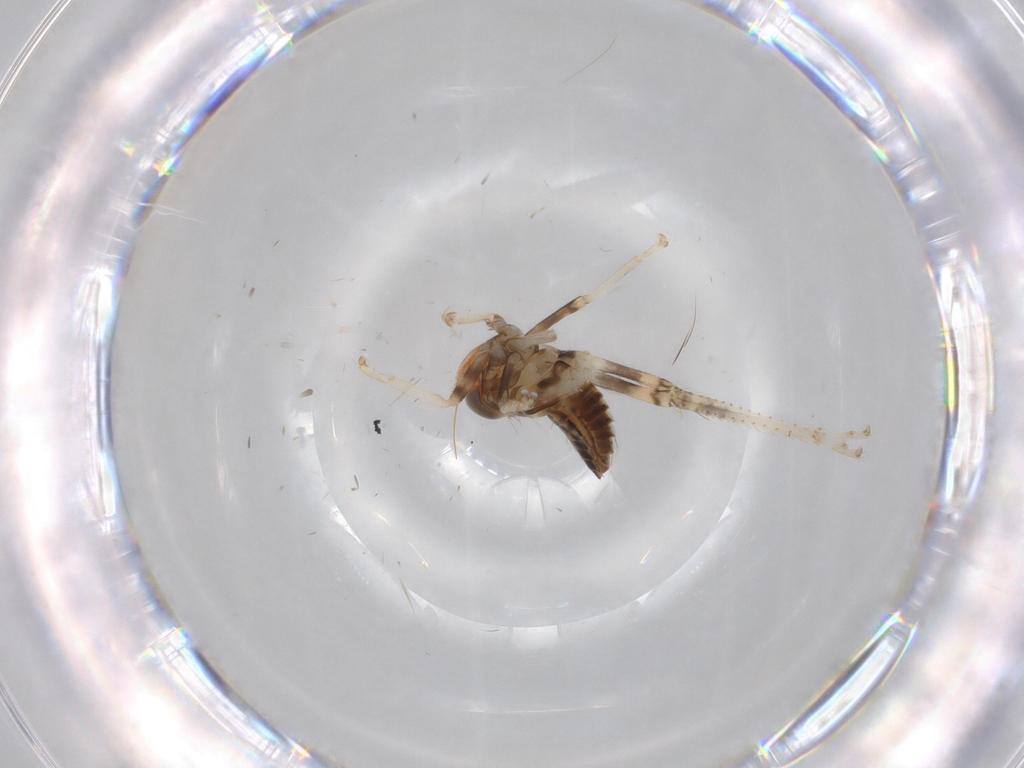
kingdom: Animalia
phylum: Arthropoda
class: Insecta
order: Hemiptera
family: Cicadellidae
